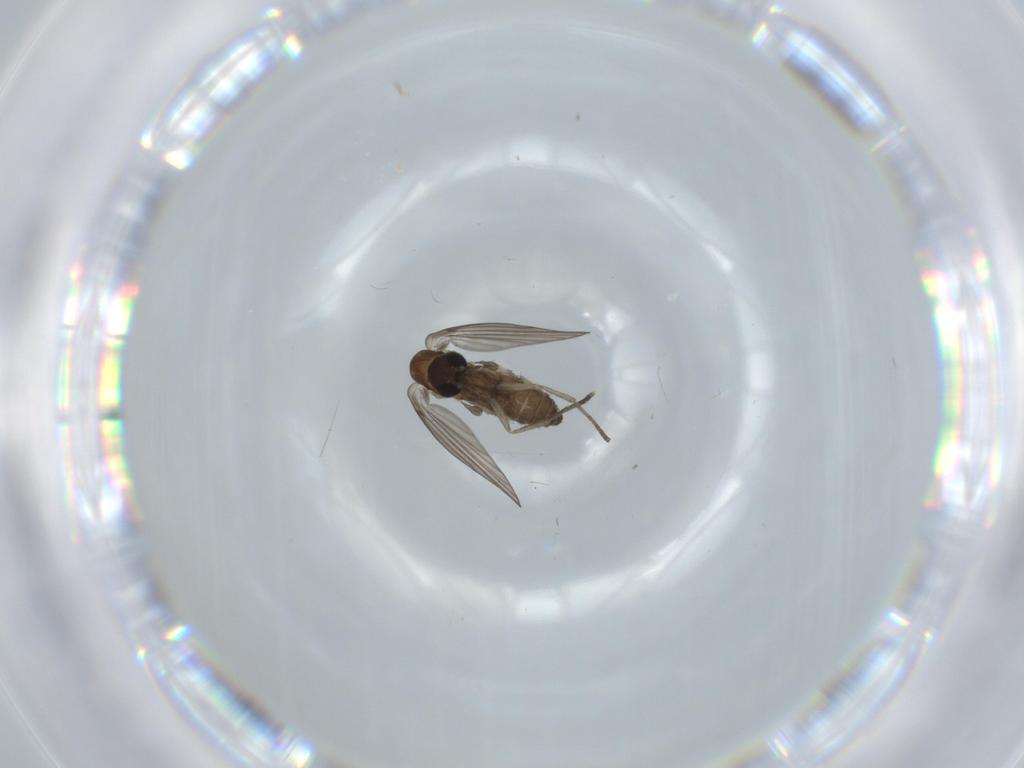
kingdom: Animalia
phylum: Arthropoda
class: Insecta
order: Diptera
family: Psychodidae
